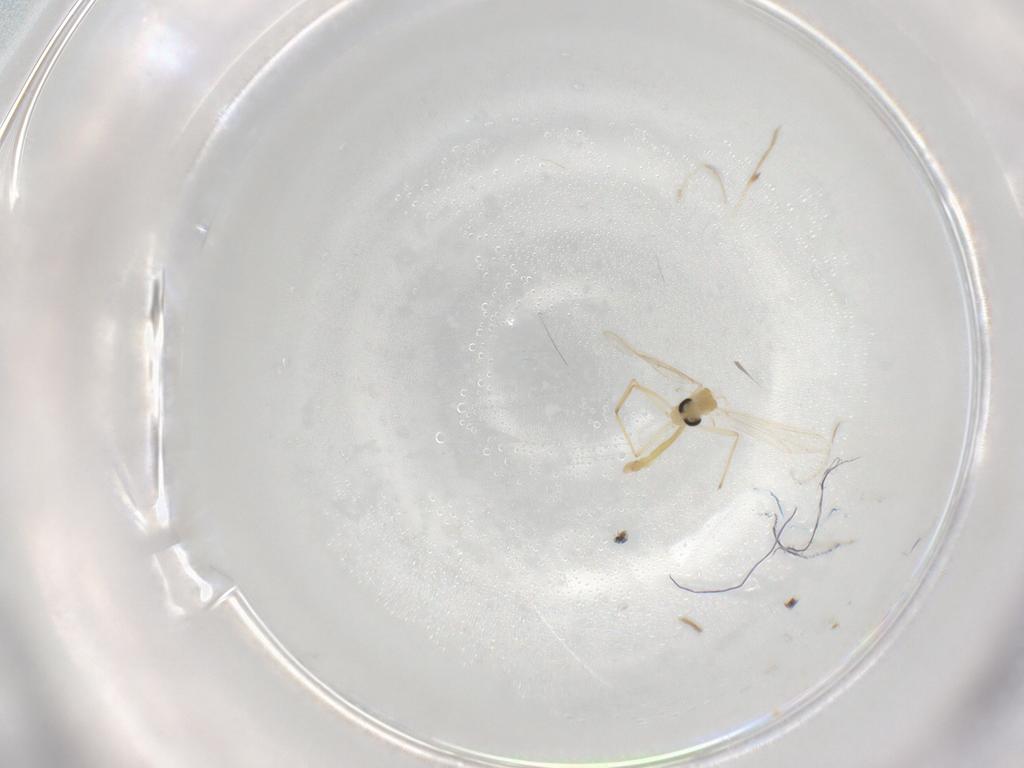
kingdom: Animalia
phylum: Arthropoda
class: Insecta
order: Diptera
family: Chironomidae
